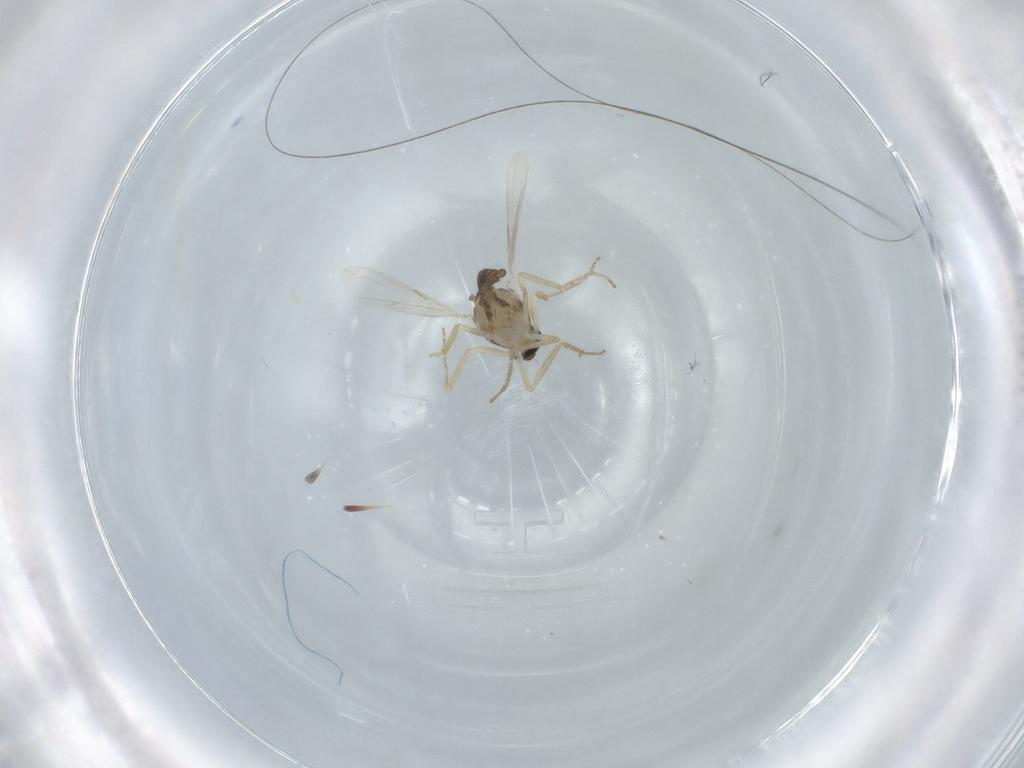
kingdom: Animalia
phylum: Arthropoda
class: Insecta
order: Diptera
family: Ceratopogonidae
